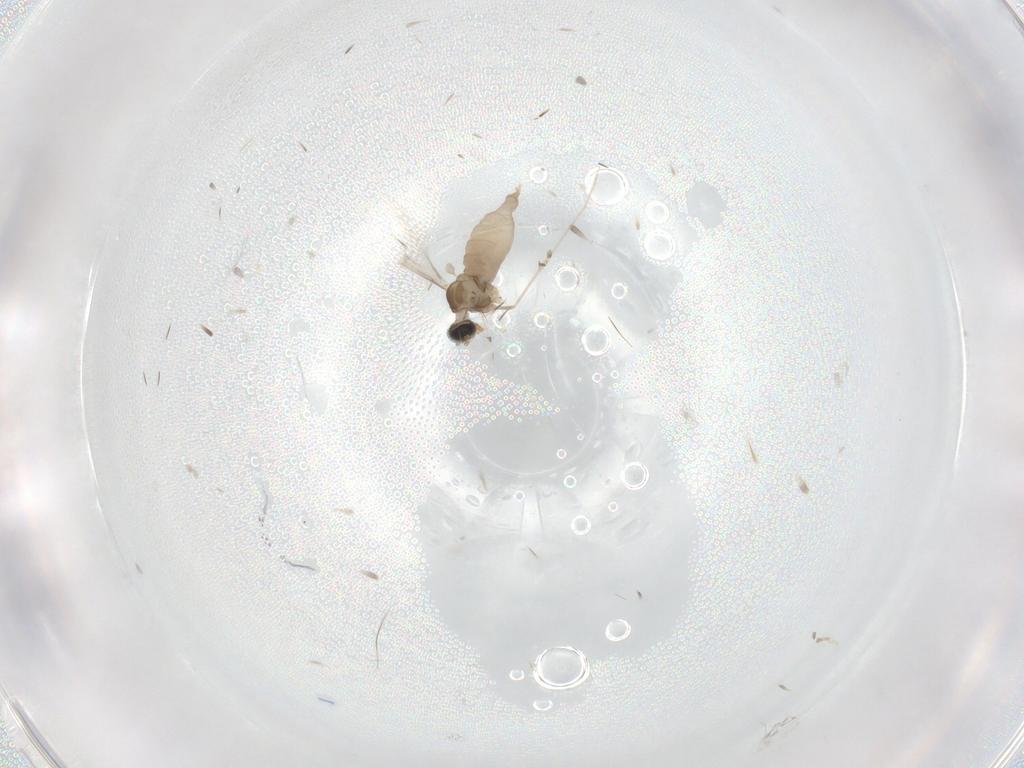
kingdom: Animalia
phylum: Arthropoda
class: Insecta
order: Diptera
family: Cecidomyiidae
